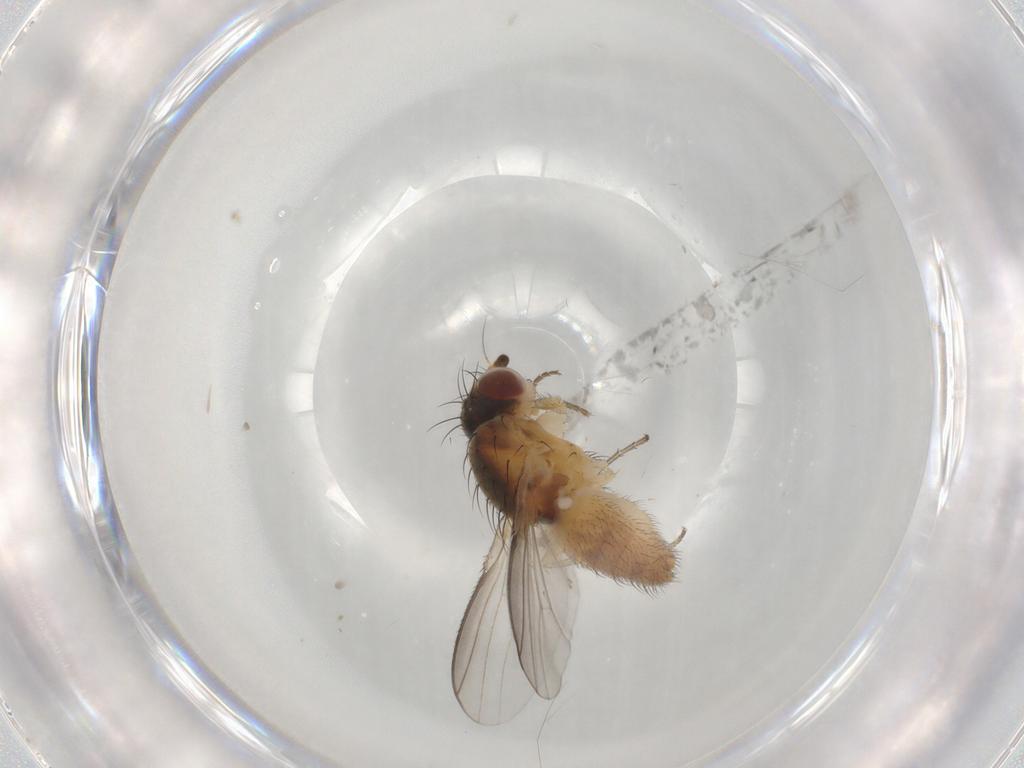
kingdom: Animalia
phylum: Arthropoda
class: Insecta
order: Diptera
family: Heleomyzidae
